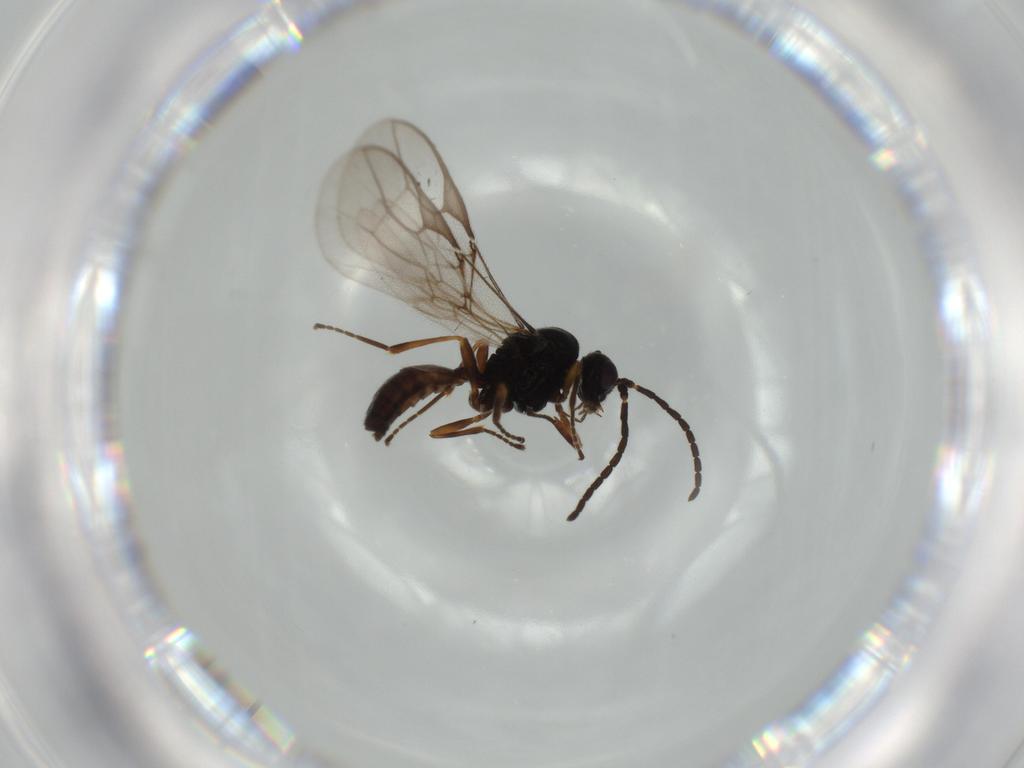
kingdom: Animalia
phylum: Arthropoda
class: Insecta
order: Hymenoptera
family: Braconidae
